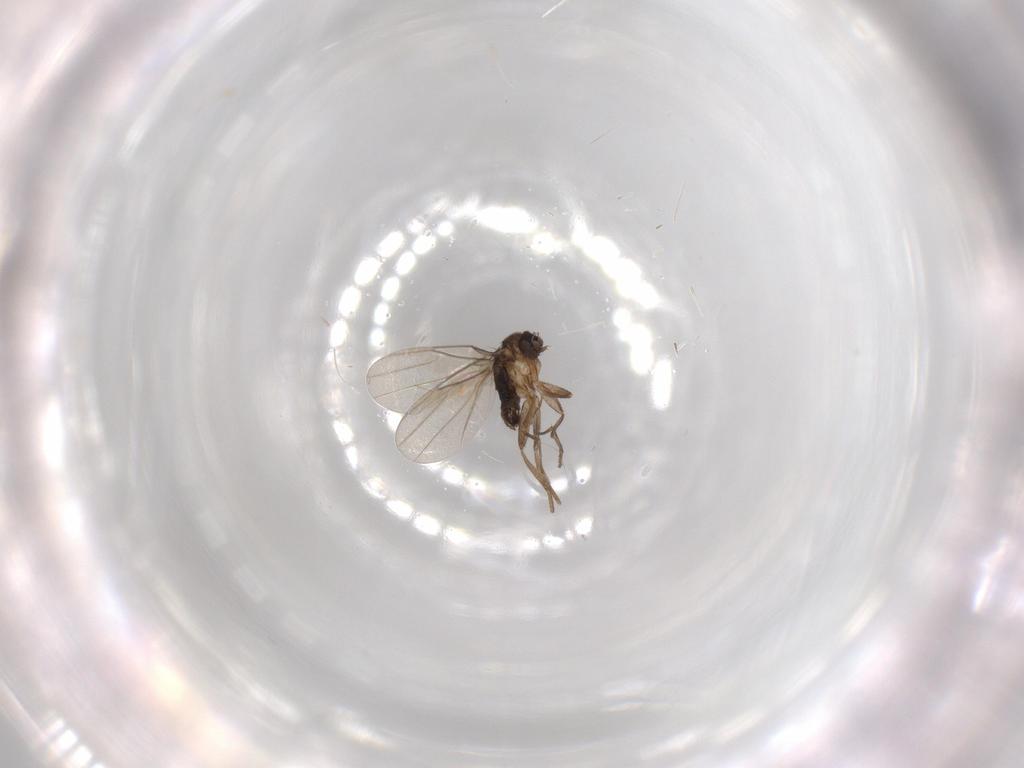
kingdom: Animalia
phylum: Arthropoda
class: Insecta
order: Diptera
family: Phoridae
